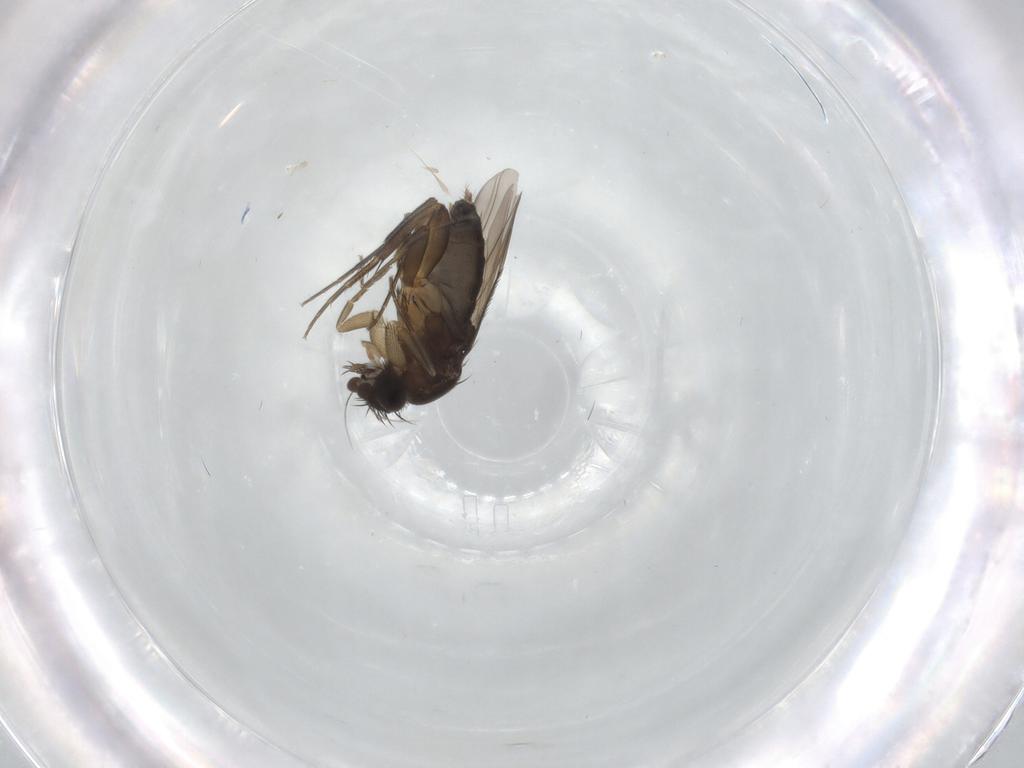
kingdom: Animalia
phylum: Arthropoda
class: Insecta
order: Diptera
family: Phoridae
